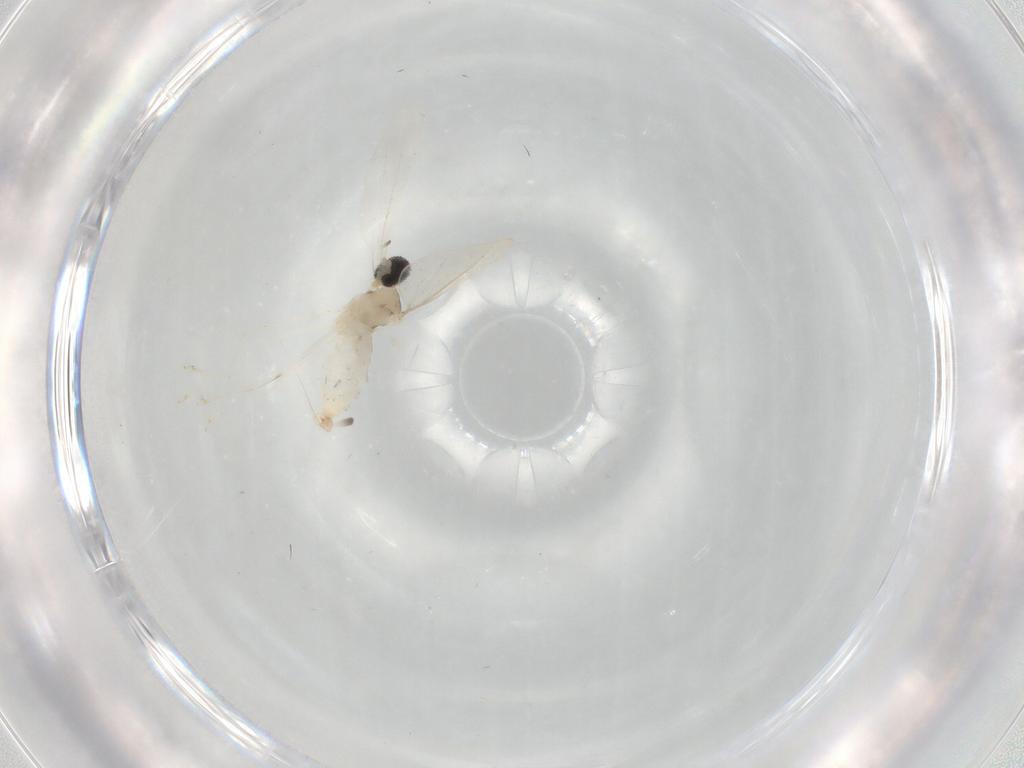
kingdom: Animalia
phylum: Arthropoda
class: Insecta
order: Diptera
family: Cecidomyiidae
